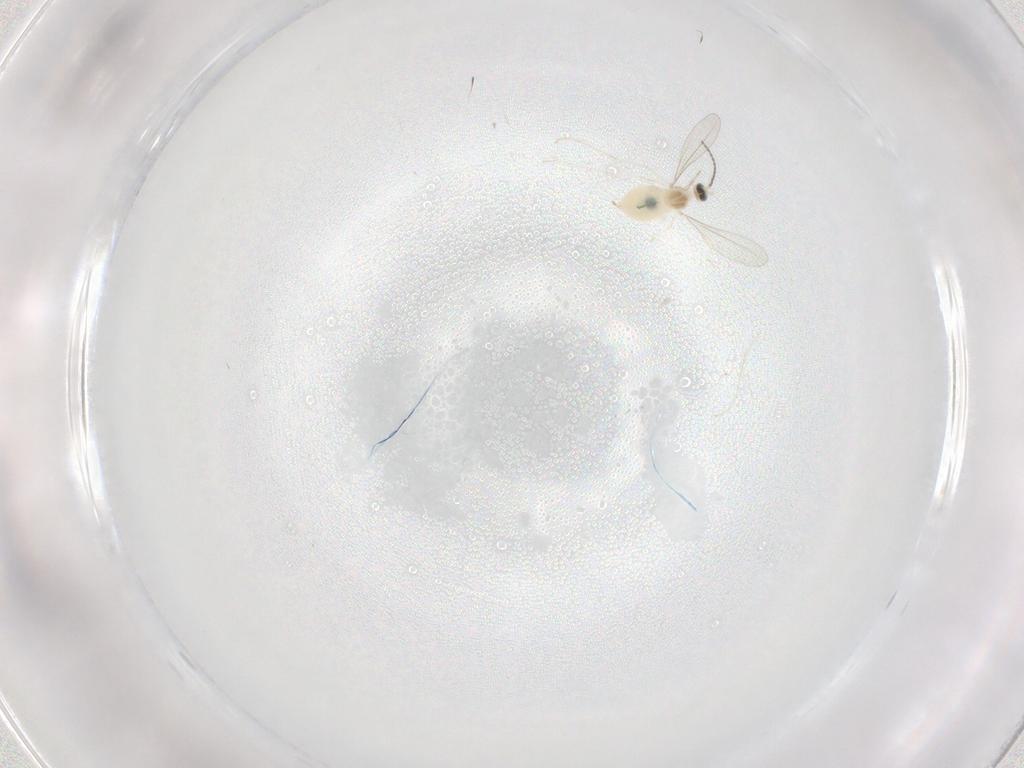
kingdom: Animalia
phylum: Arthropoda
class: Insecta
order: Diptera
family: Cecidomyiidae
